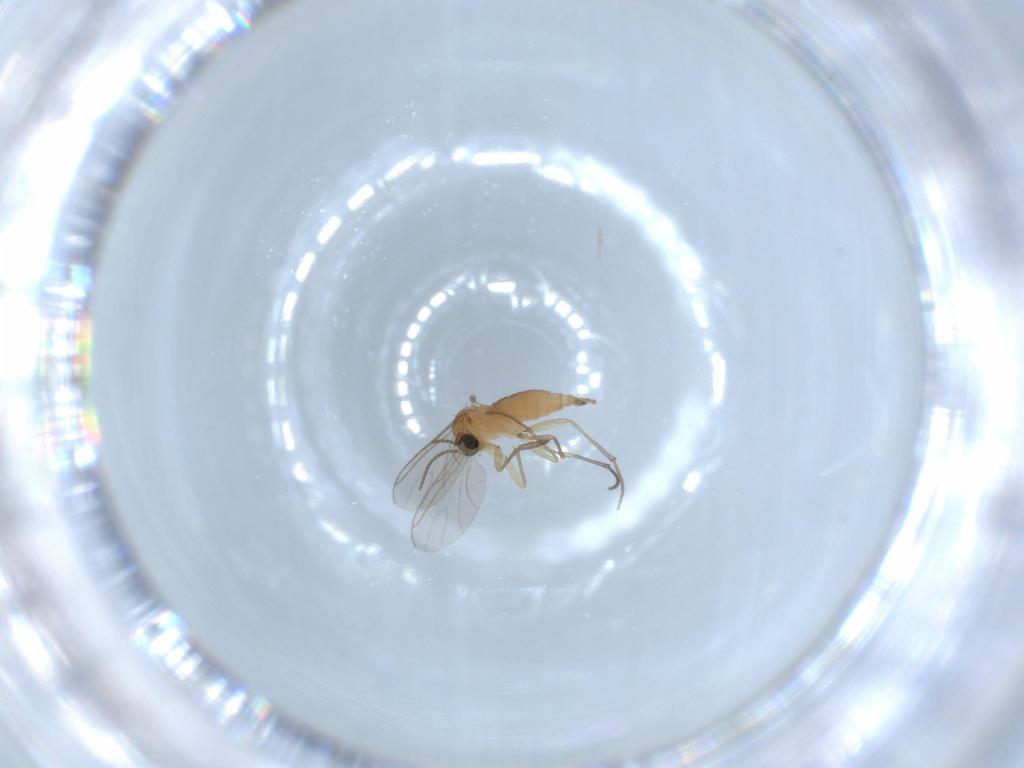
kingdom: Animalia
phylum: Arthropoda
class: Insecta
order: Diptera
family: Sciaridae
